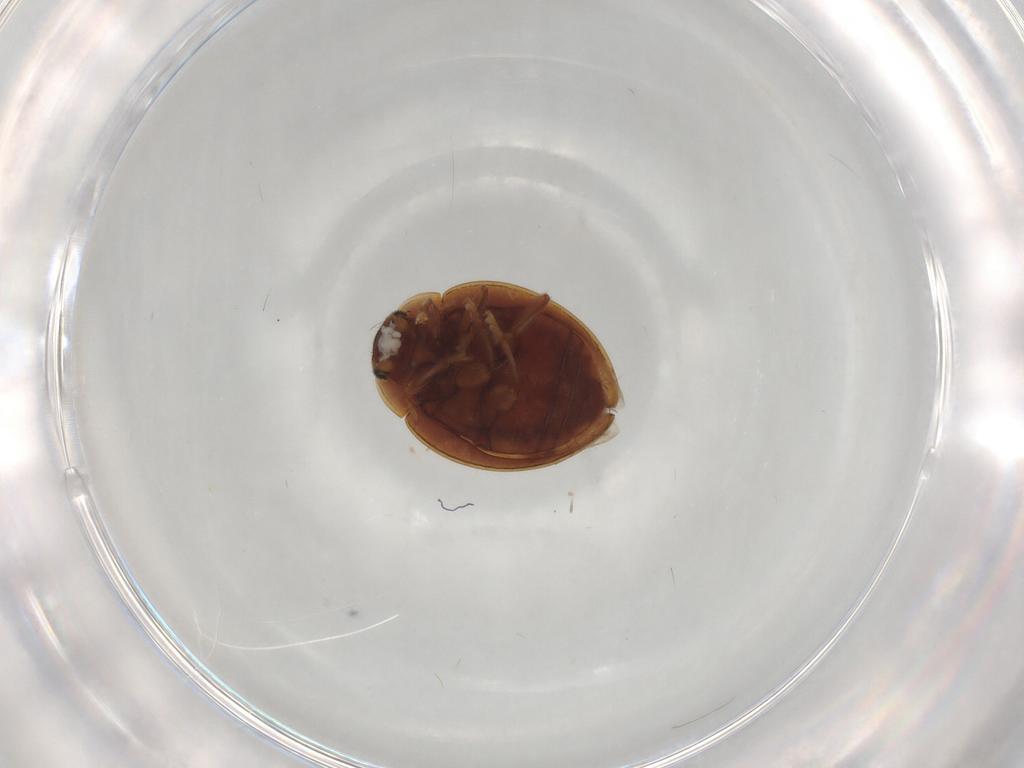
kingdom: Animalia
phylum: Arthropoda
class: Insecta
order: Coleoptera
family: Coccinellidae
